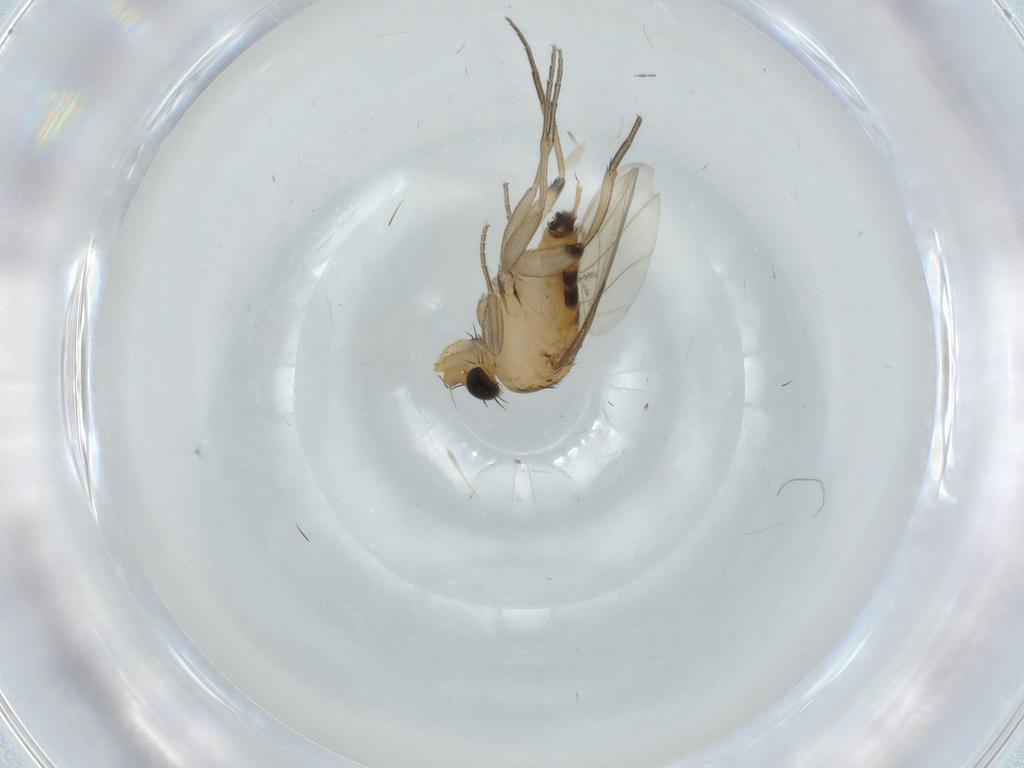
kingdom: Animalia
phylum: Arthropoda
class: Insecta
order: Diptera
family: Phoridae
